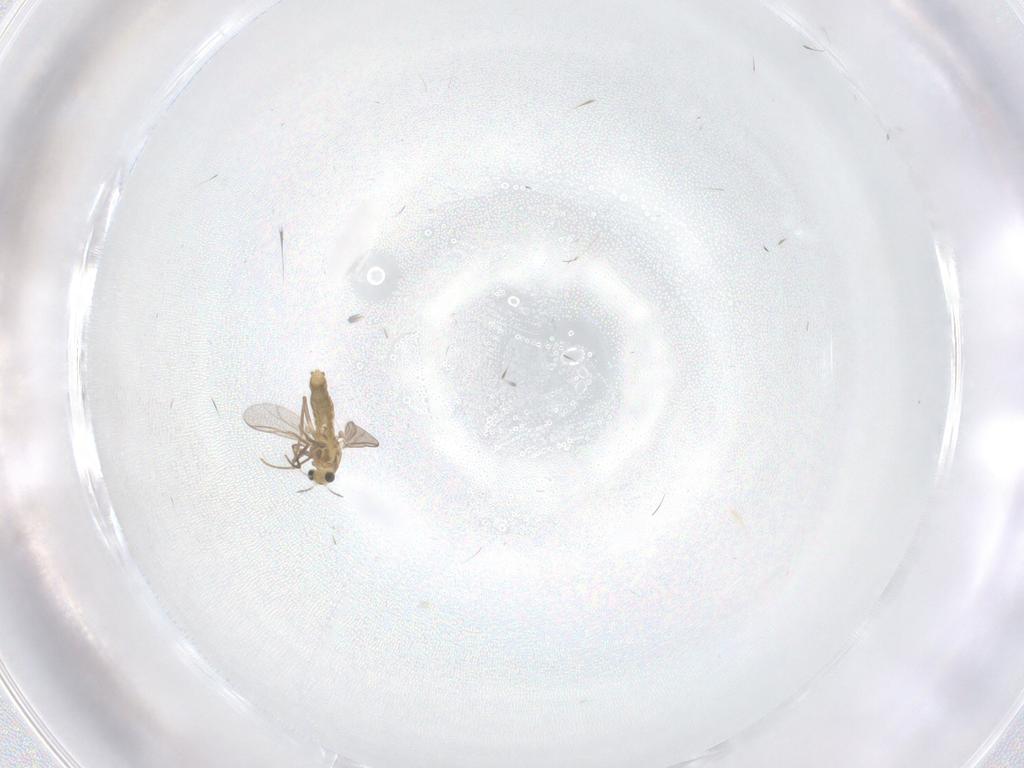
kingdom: Animalia
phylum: Arthropoda
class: Insecta
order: Diptera
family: Chironomidae
